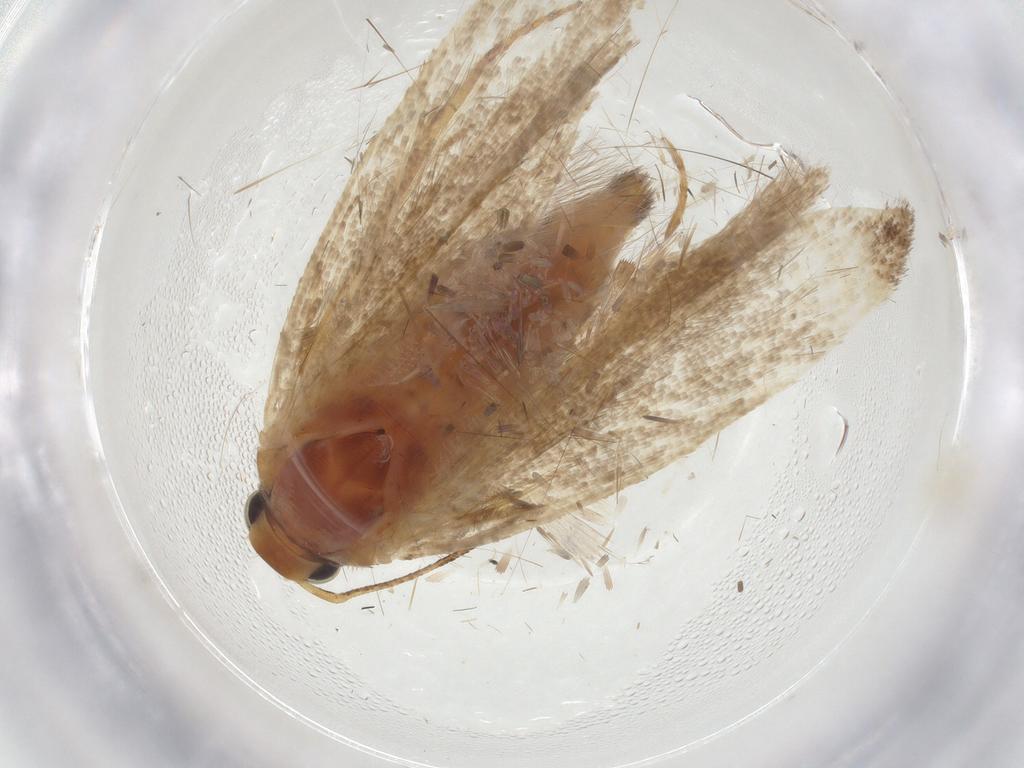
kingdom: Animalia
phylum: Arthropoda
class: Insecta
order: Lepidoptera
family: Gelechiidae
